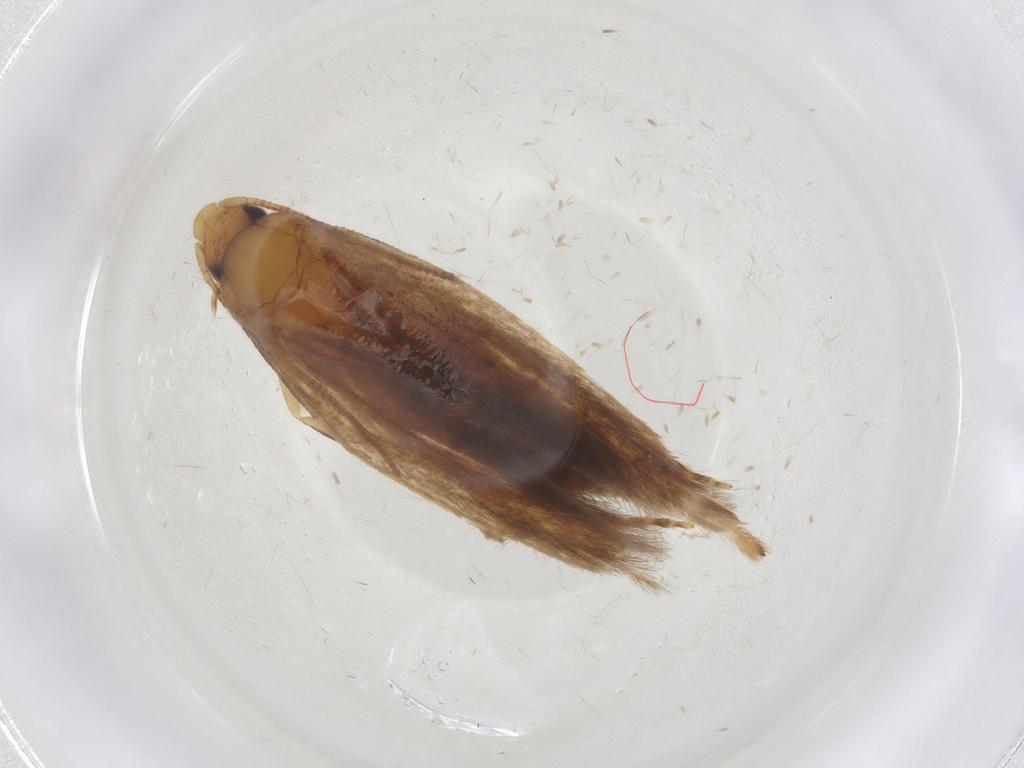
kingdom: Animalia
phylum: Arthropoda
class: Insecta
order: Lepidoptera
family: Tineidae
